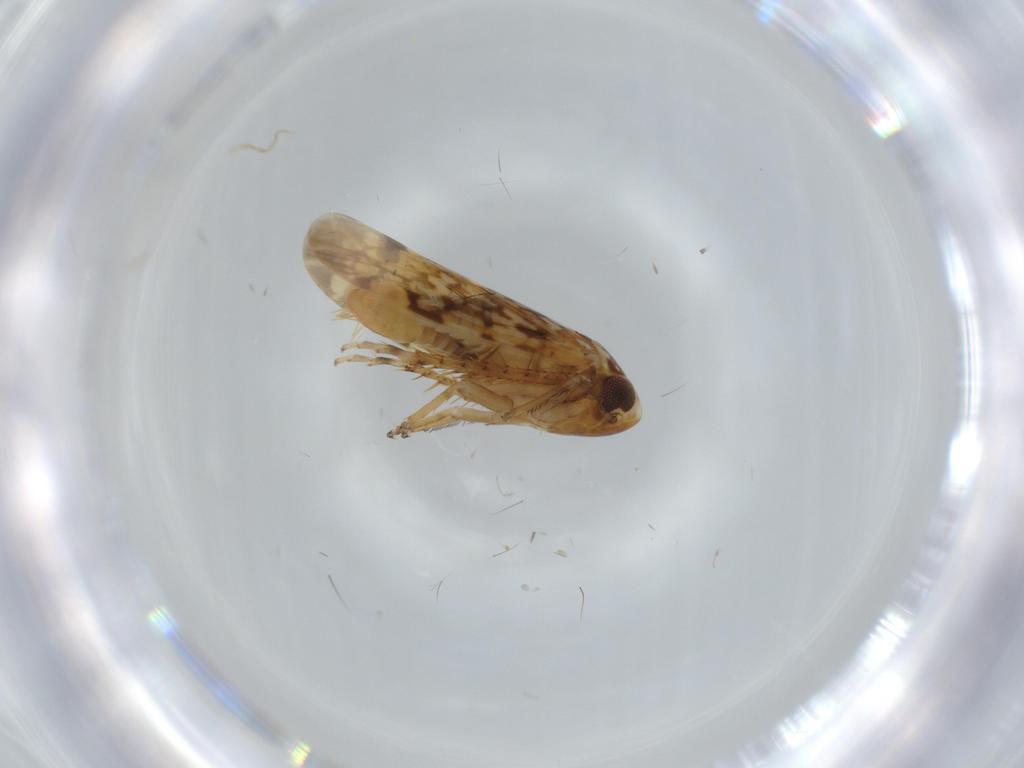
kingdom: Animalia
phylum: Arthropoda
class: Insecta
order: Hemiptera
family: Cicadellidae
